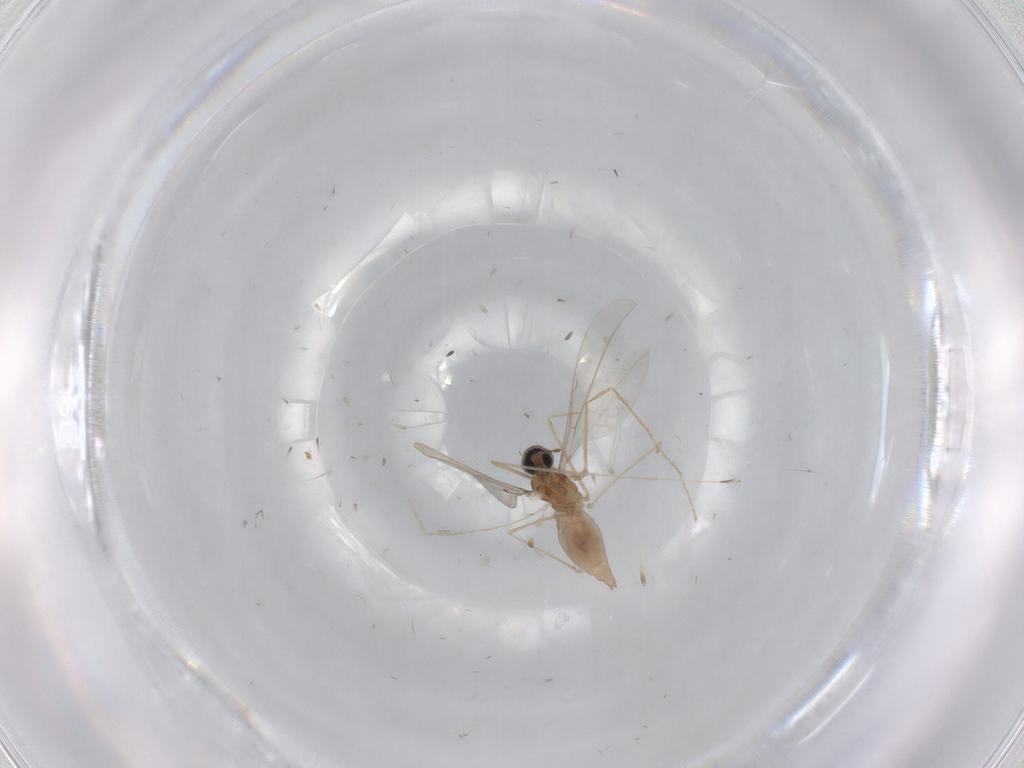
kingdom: Animalia
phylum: Arthropoda
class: Insecta
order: Diptera
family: Cecidomyiidae
